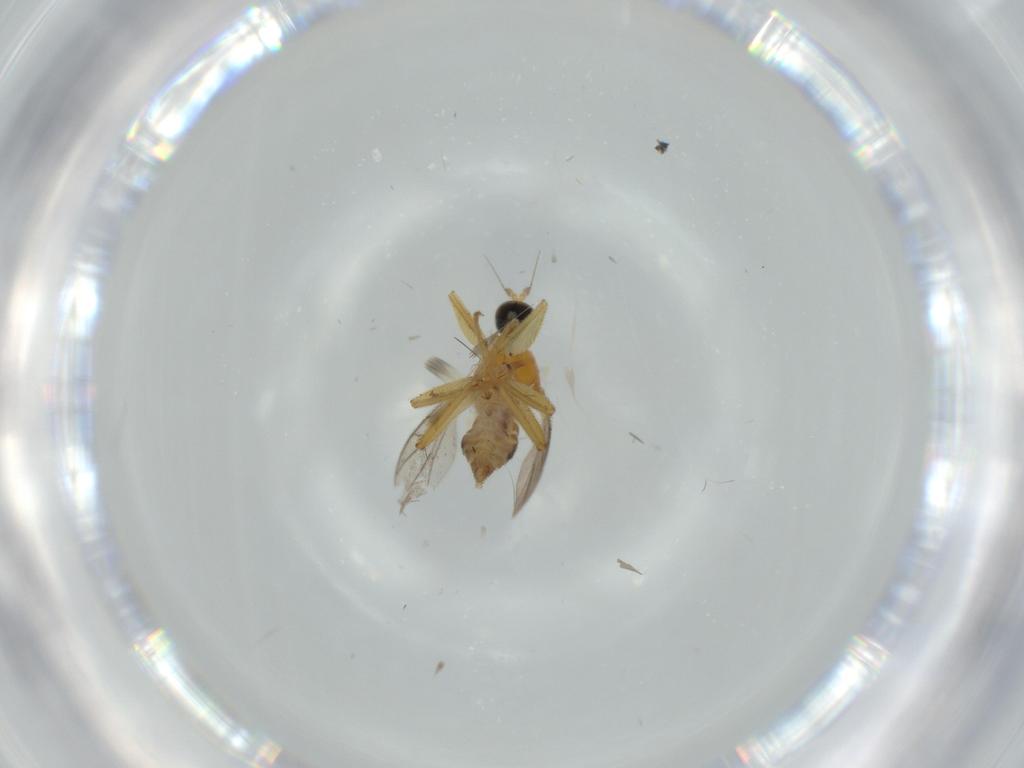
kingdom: Animalia
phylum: Arthropoda
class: Insecta
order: Diptera
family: Hybotidae
